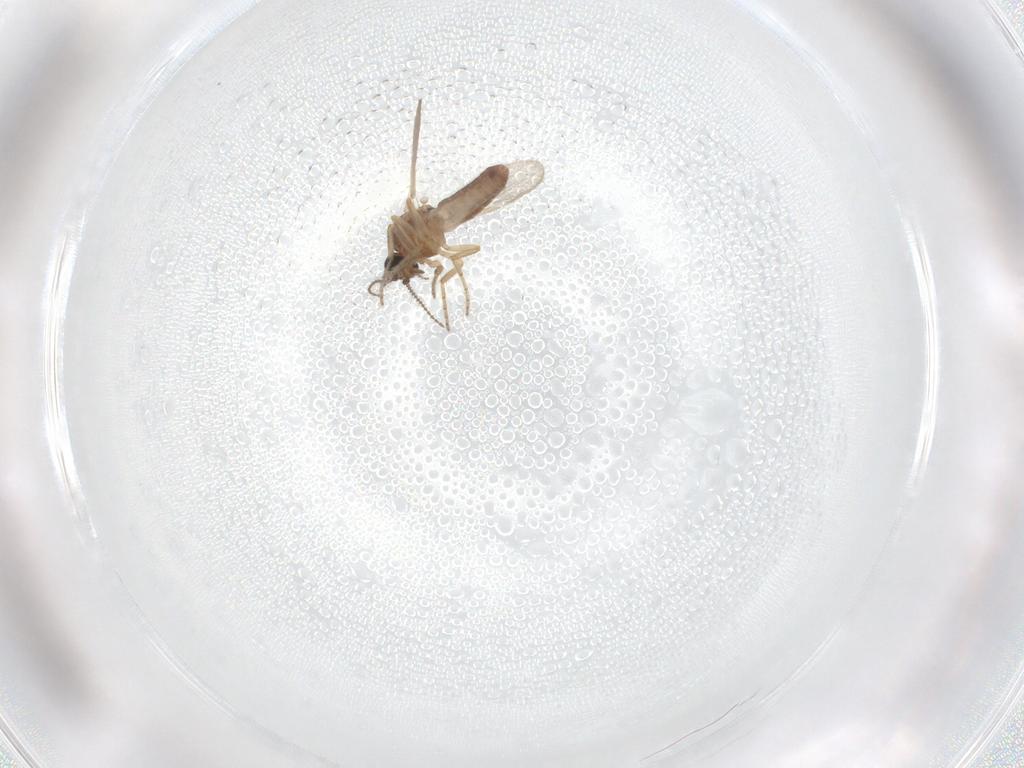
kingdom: Animalia
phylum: Arthropoda
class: Insecta
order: Diptera
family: Ceratopogonidae
